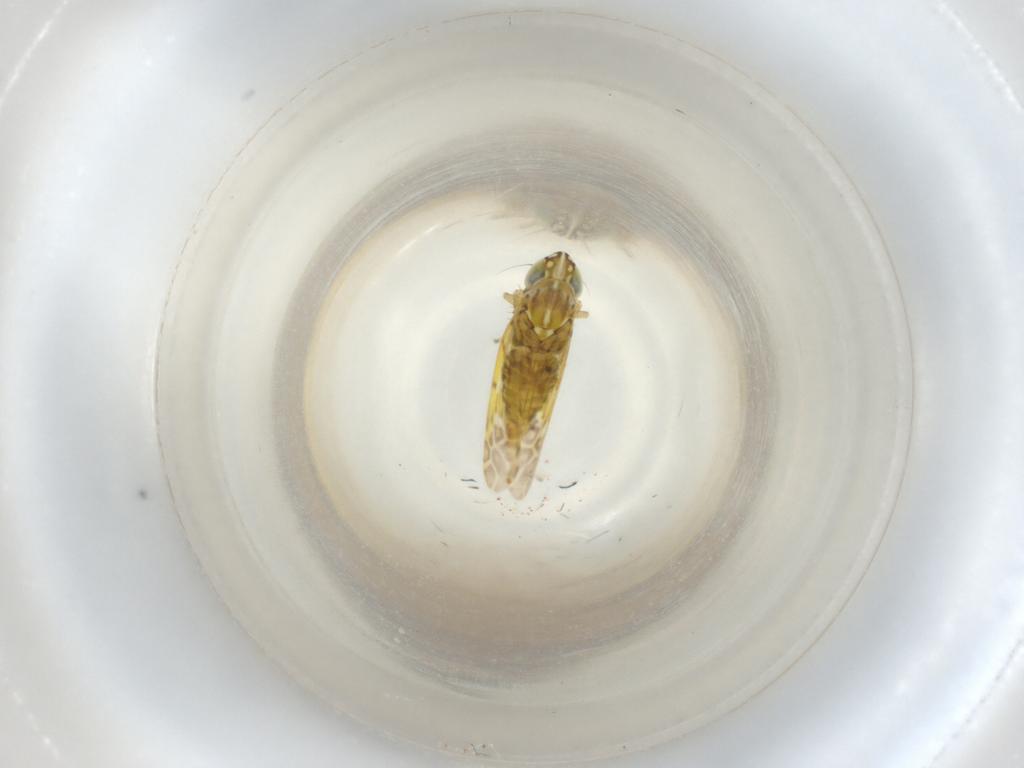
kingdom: Animalia
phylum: Arthropoda
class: Insecta
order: Hemiptera
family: Cicadellidae
